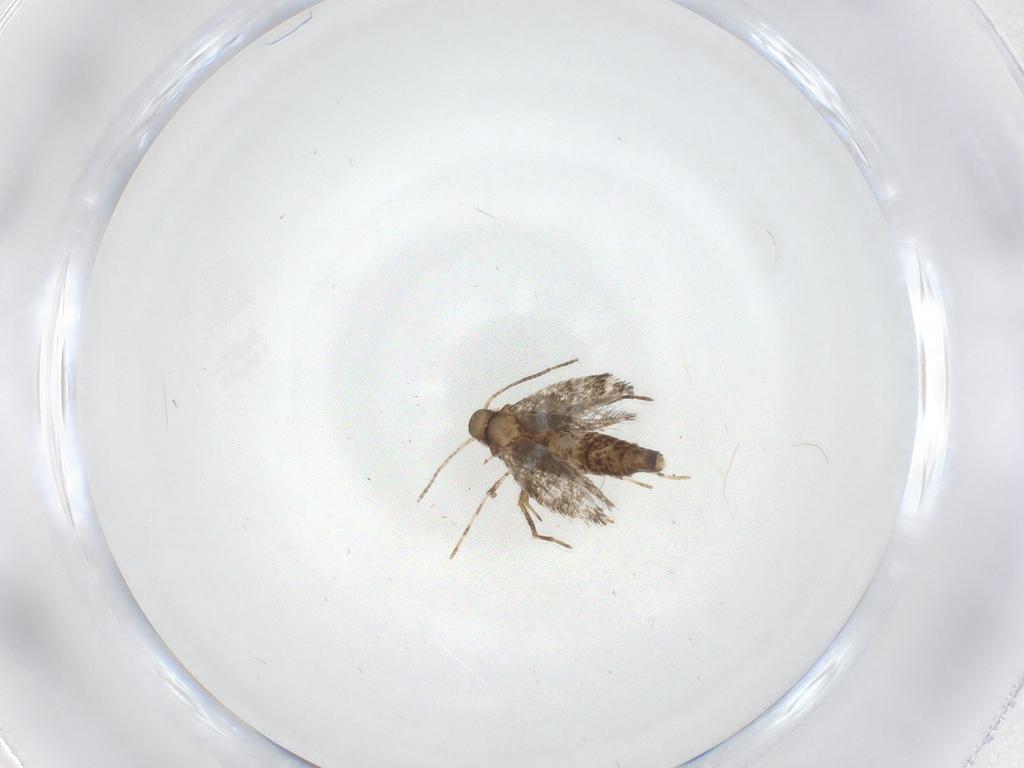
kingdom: Animalia
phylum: Arthropoda
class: Insecta
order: Lepidoptera
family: Gracillariidae
